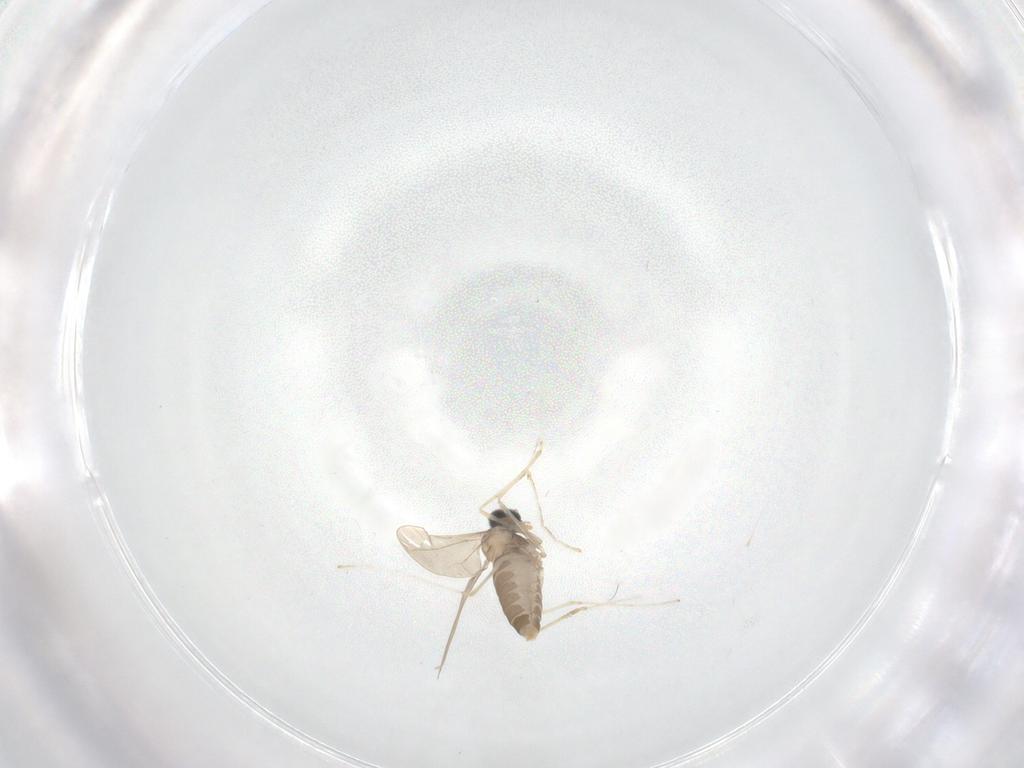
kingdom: Animalia
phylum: Arthropoda
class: Insecta
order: Diptera
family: Cecidomyiidae
